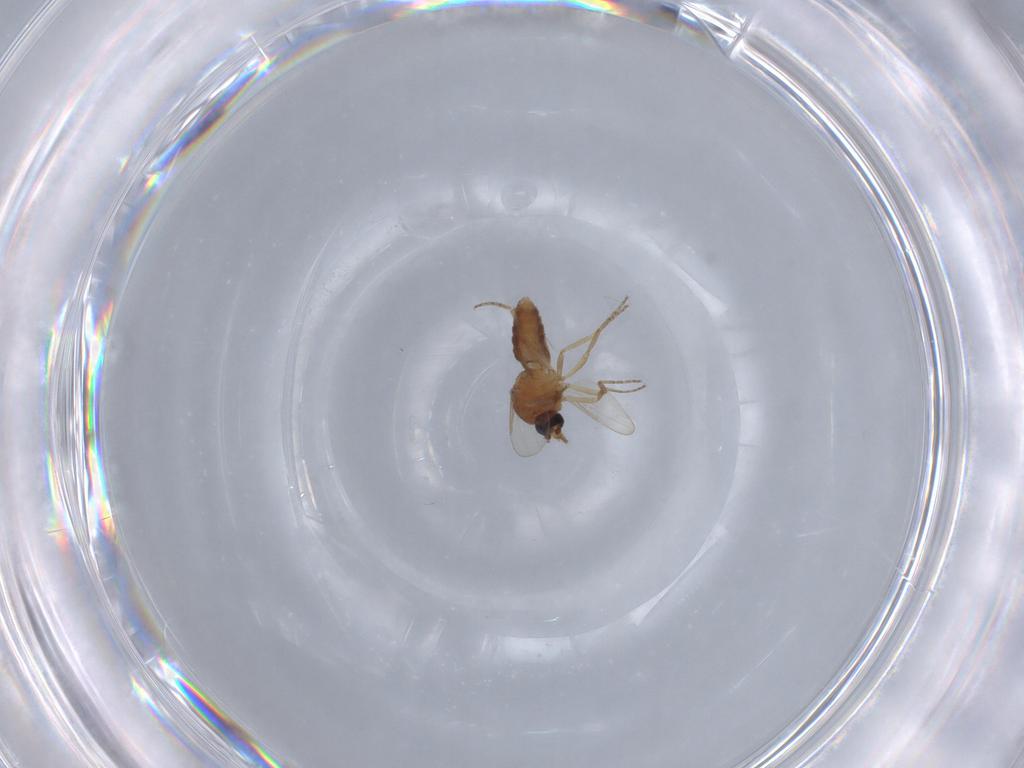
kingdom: Animalia
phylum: Arthropoda
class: Insecta
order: Diptera
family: Ceratopogonidae
